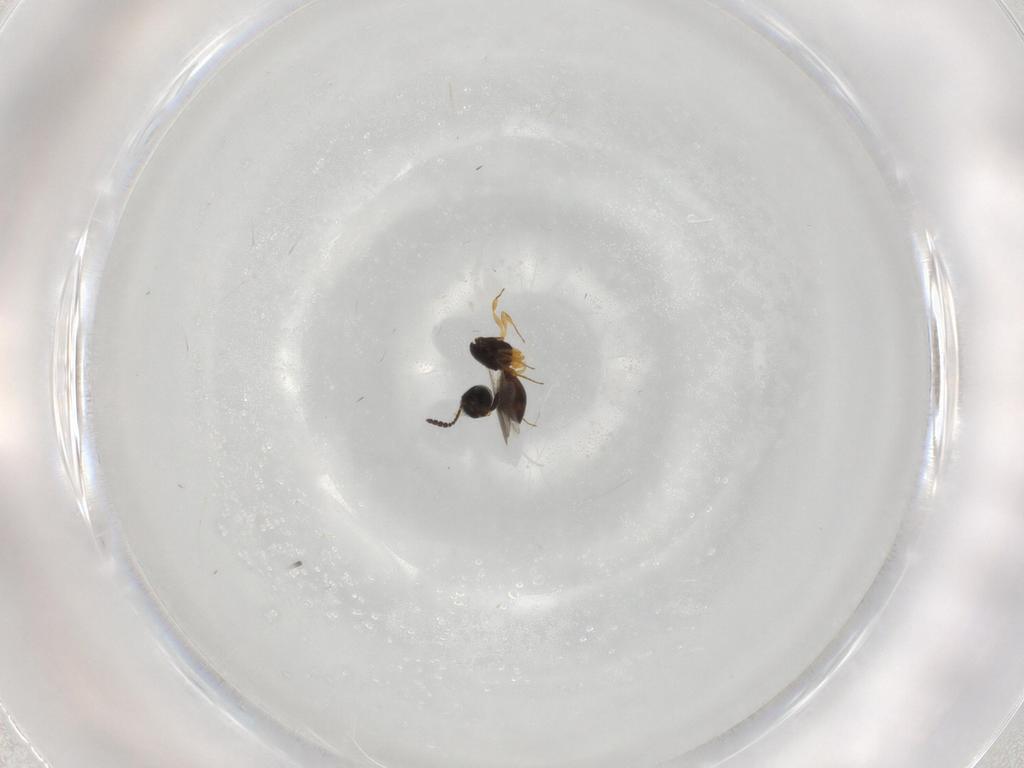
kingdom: Animalia
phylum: Arthropoda
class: Insecta
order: Hymenoptera
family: Scelionidae
